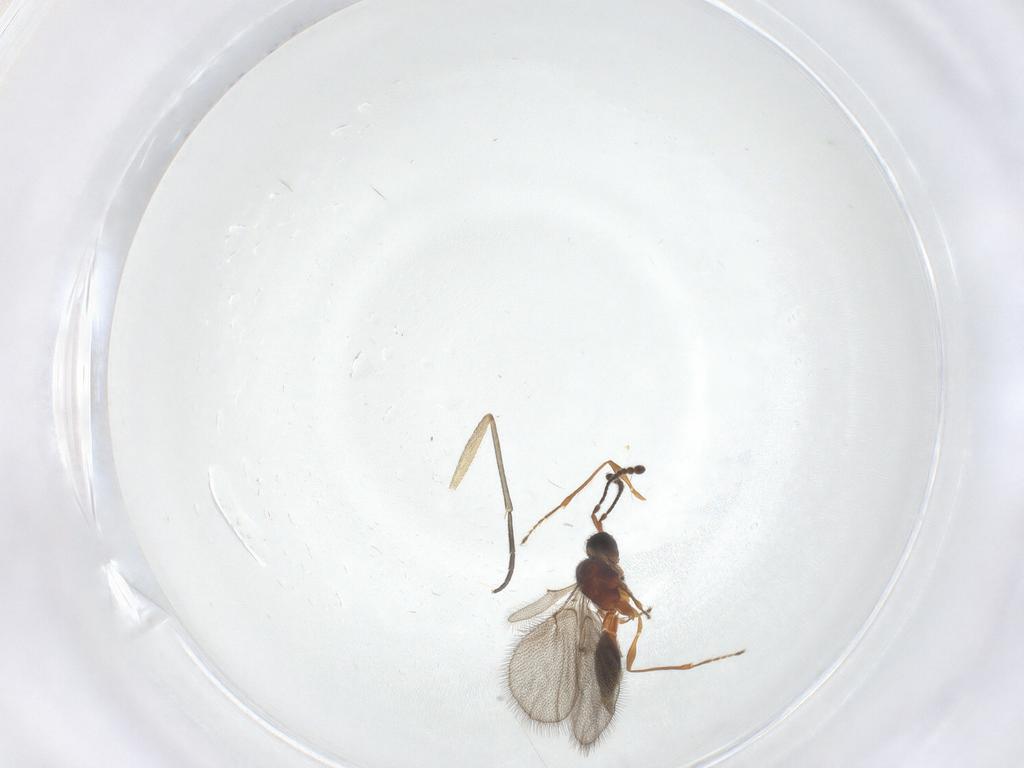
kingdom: Animalia
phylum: Arthropoda
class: Insecta
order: Hymenoptera
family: Diapriidae
